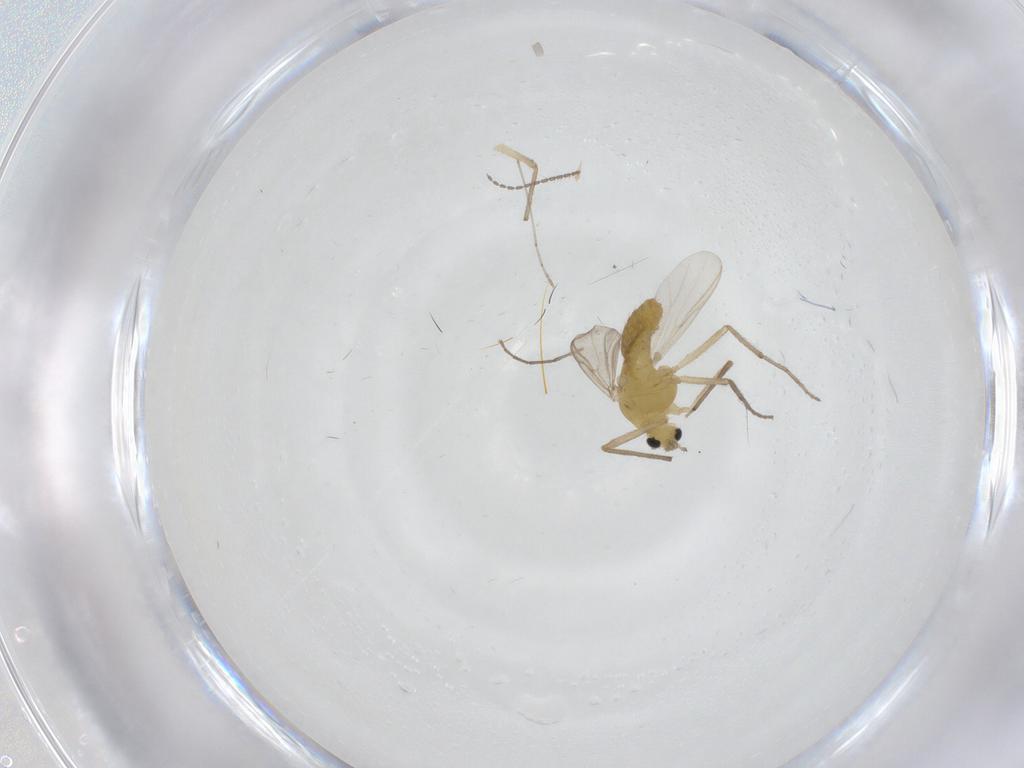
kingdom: Animalia
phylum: Arthropoda
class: Insecta
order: Diptera
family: Chironomidae
